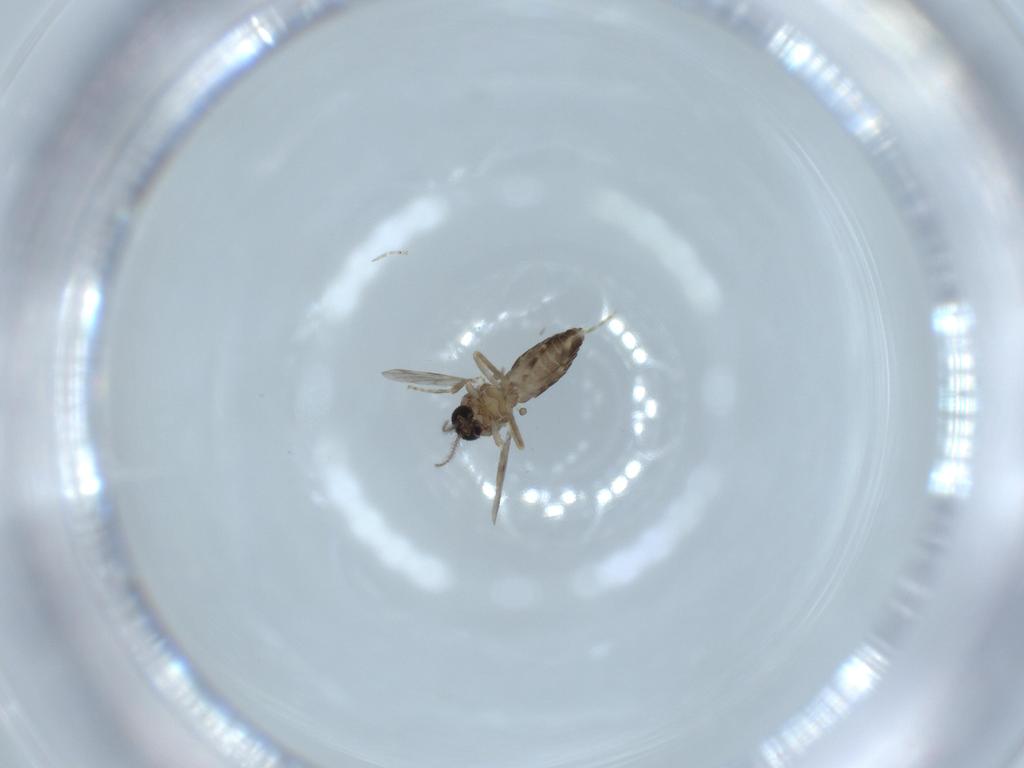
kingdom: Animalia
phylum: Arthropoda
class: Insecta
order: Diptera
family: Ceratopogonidae
